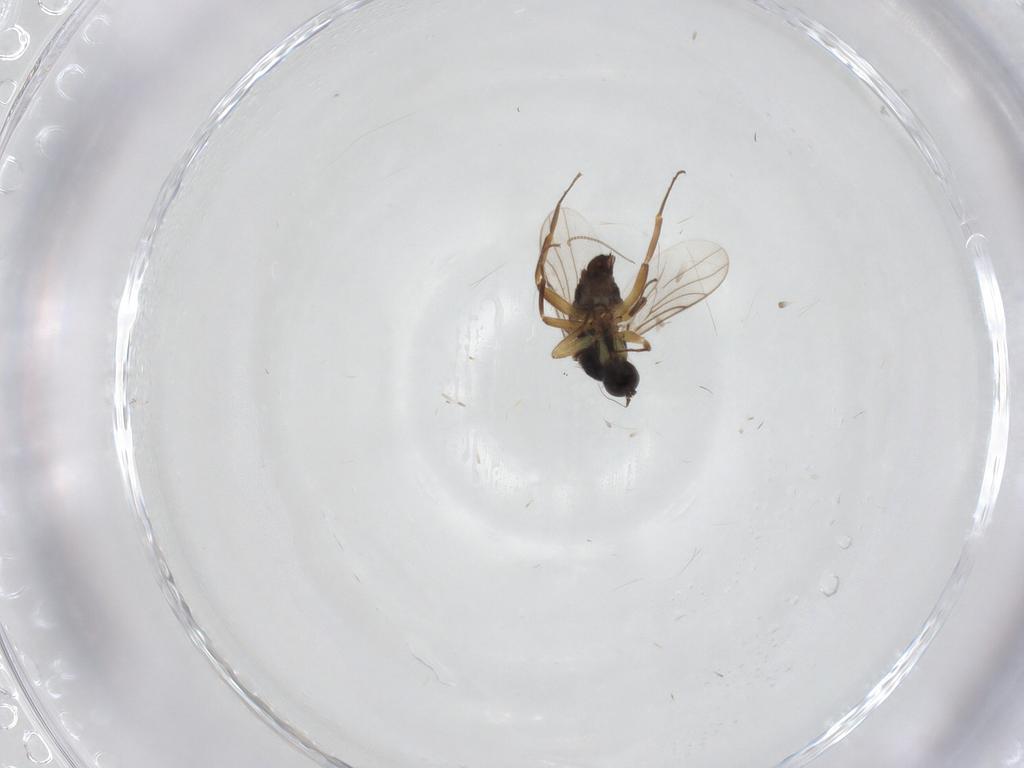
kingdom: Animalia
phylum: Arthropoda
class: Insecta
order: Diptera
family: Hybotidae
